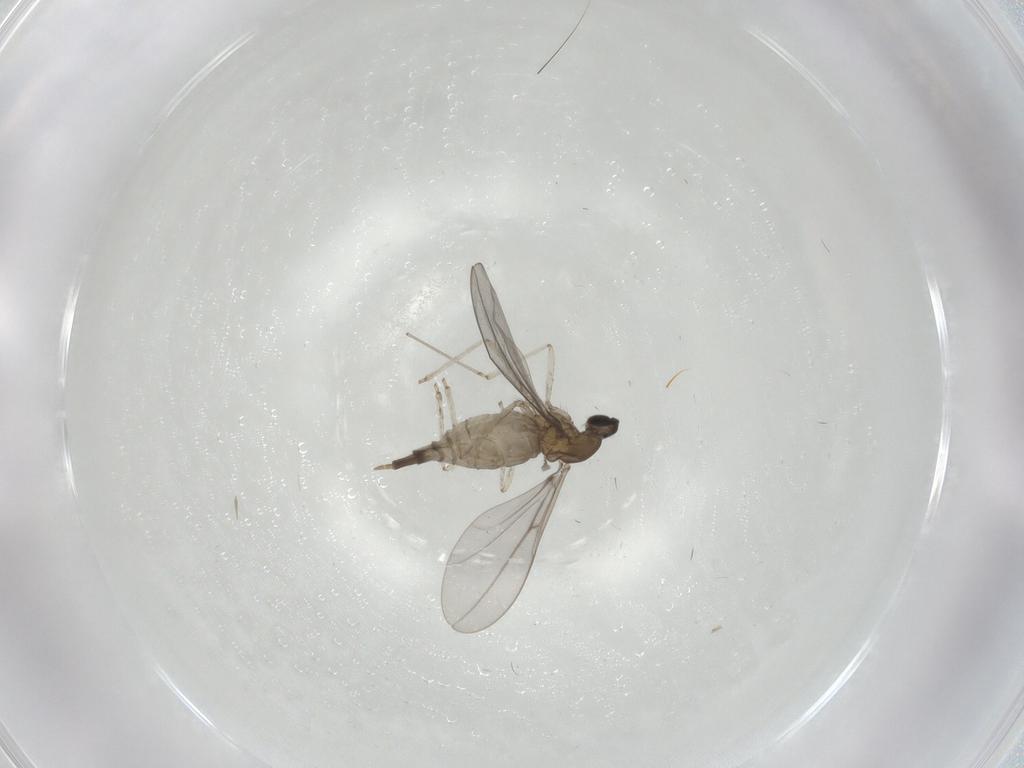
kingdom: Animalia
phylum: Arthropoda
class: Insecta
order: Diptera
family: Cecidomyiidae
